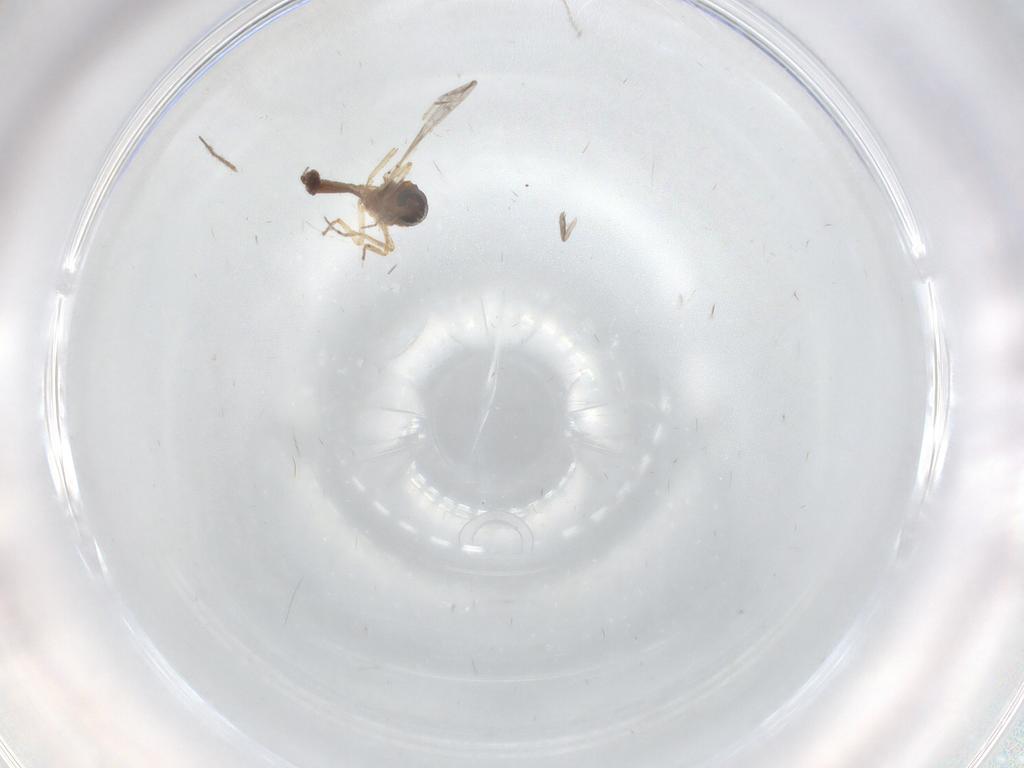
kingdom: Animalia
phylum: Arthropoda
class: Insecta
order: Diptera
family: Ceratopogonidae
